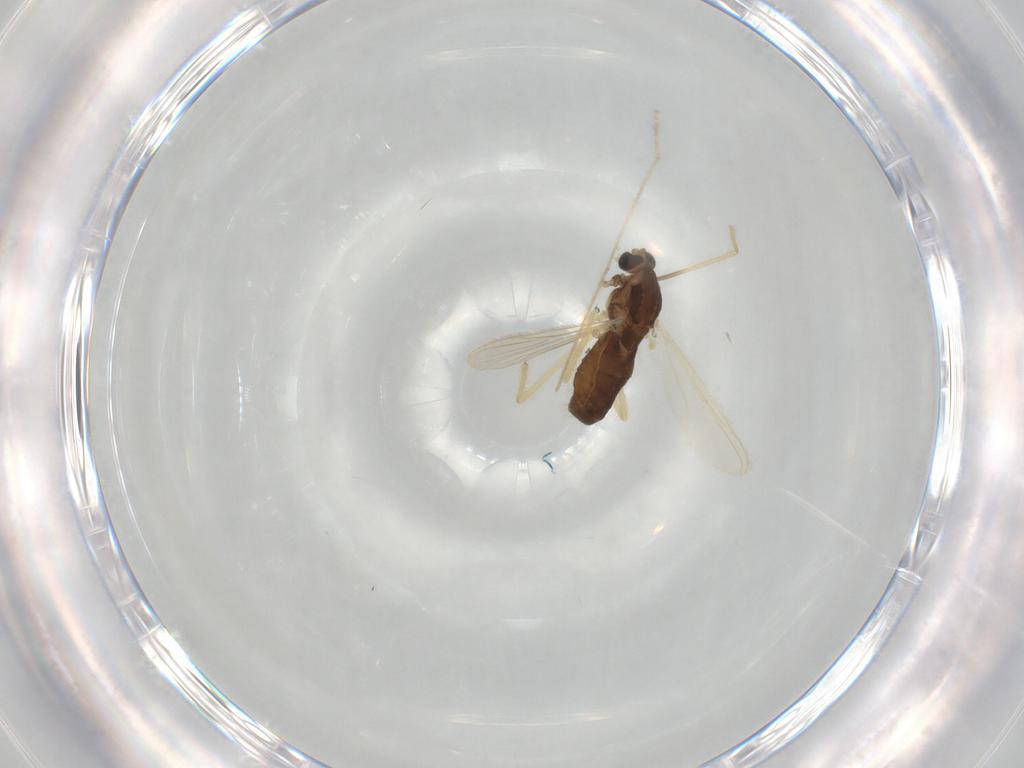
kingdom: Animalia
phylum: Arthropoda
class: Insecta
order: Diptera
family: Chironomidae
